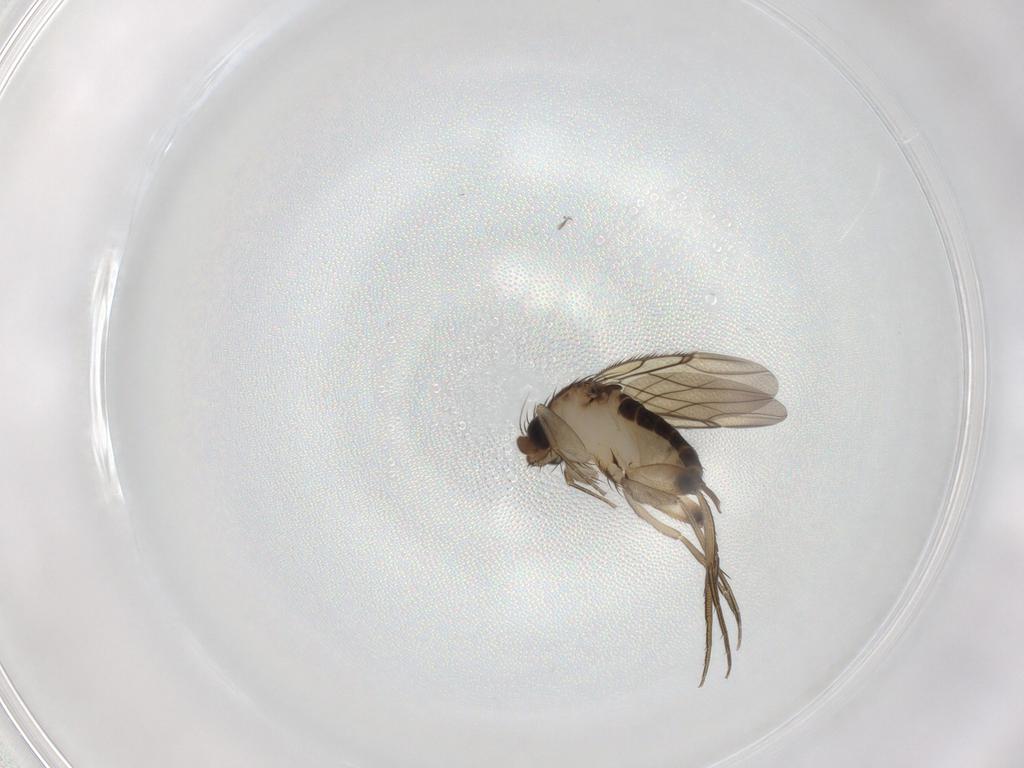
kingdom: Animalia
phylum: Arthropoda
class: Insecta
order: Diptera
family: Phoridae
